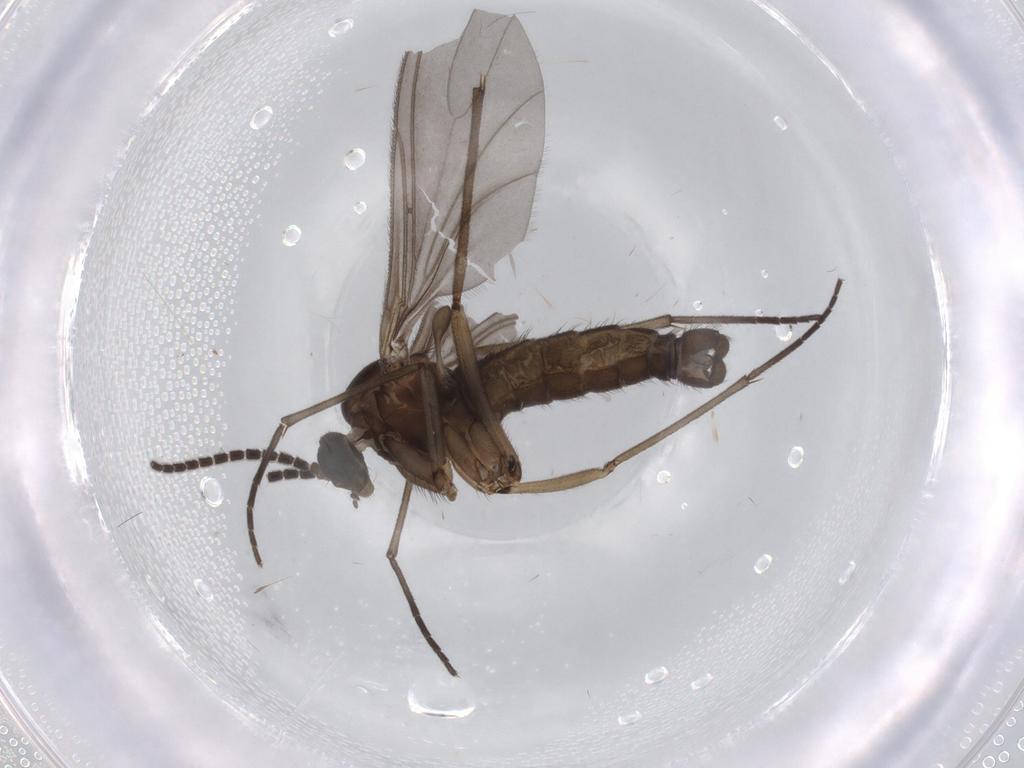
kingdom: Animalia
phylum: Arthropoda
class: Insecta
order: Diptera
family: Sciaridae
